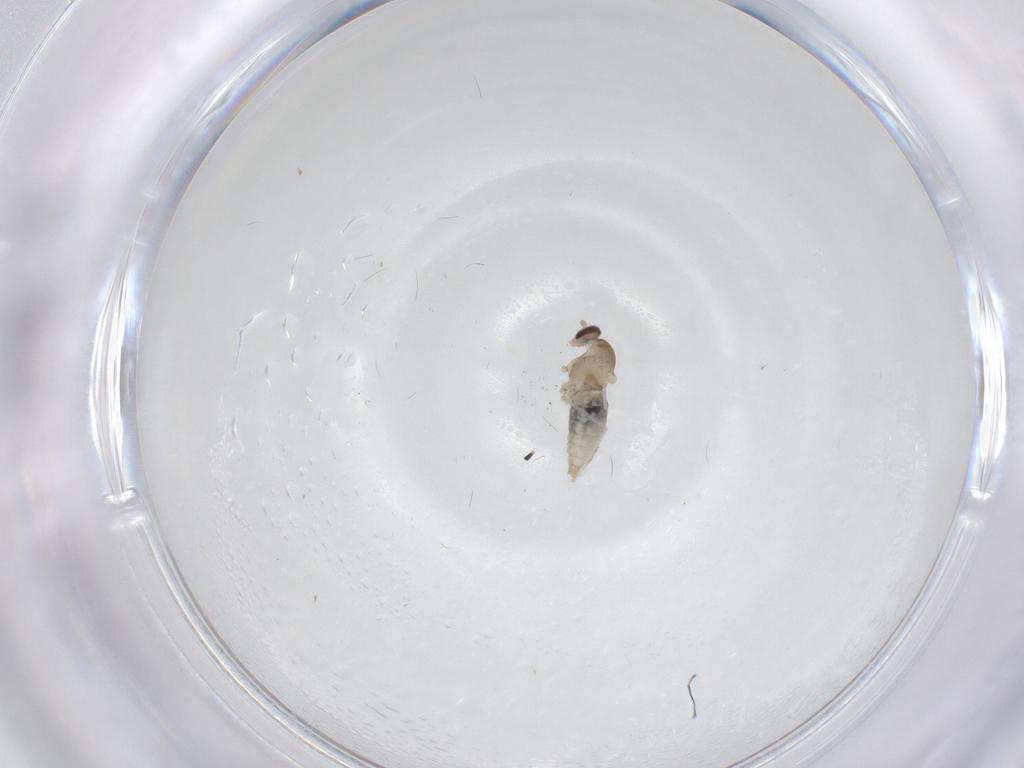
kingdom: Animalia
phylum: Arthropoda
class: Insecta
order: Diptera
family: Cecidomyiidae
